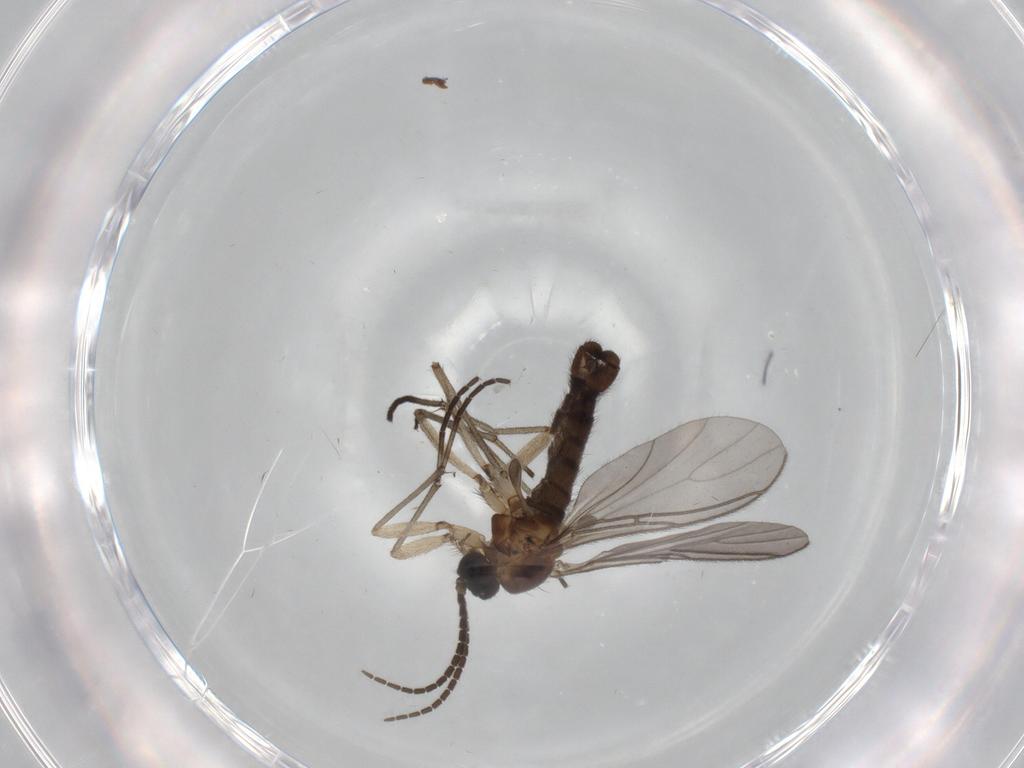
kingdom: Animalia
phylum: Arthropoda
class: Insecta
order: Diptera
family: Sciaridae
